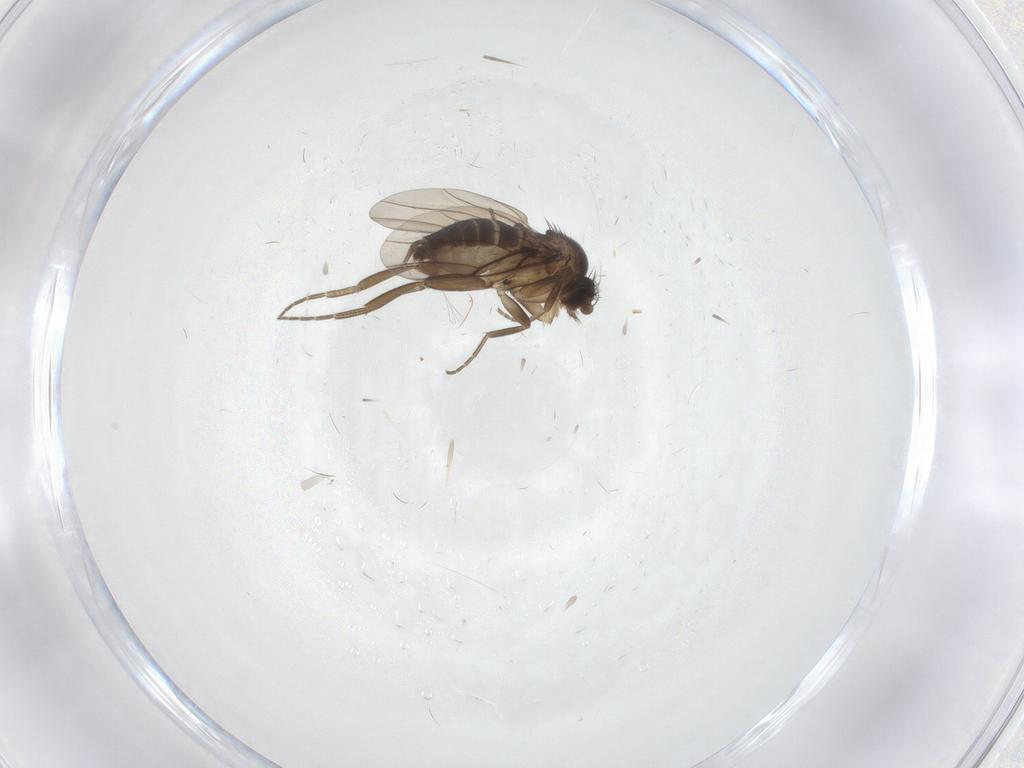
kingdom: Animalia
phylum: Arthropoda
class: Insecta
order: Diptera
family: Phoridae
